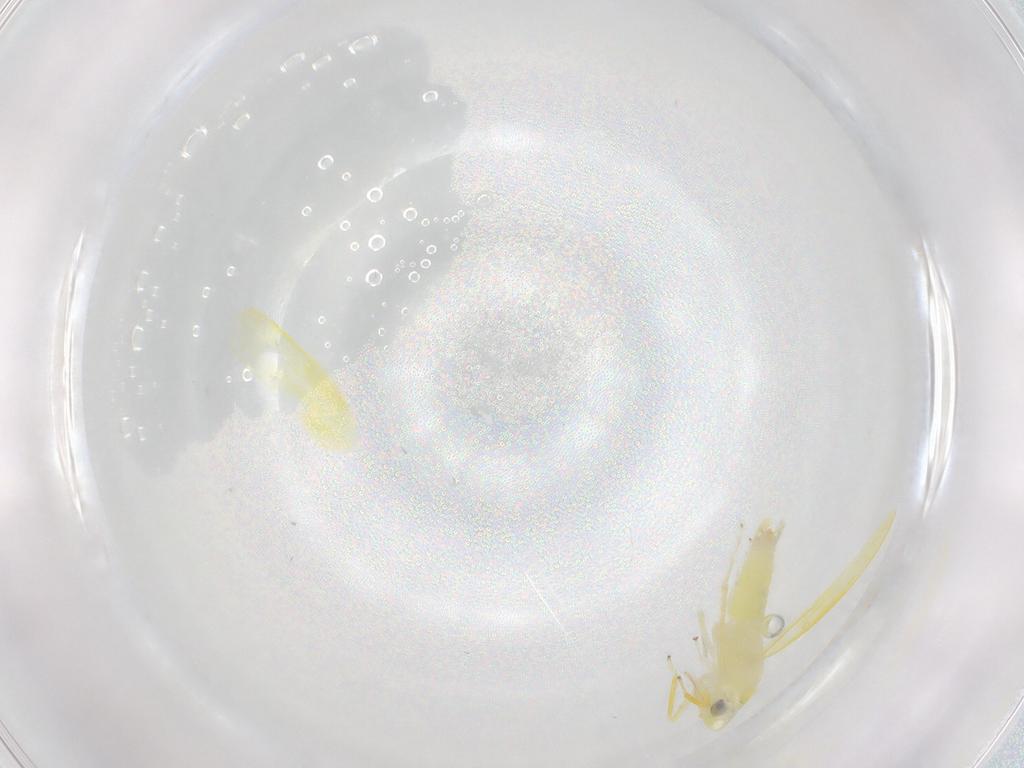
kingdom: Animalia
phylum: Arthropoda
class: Insecta
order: Hemiptera
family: Cicadellidae
